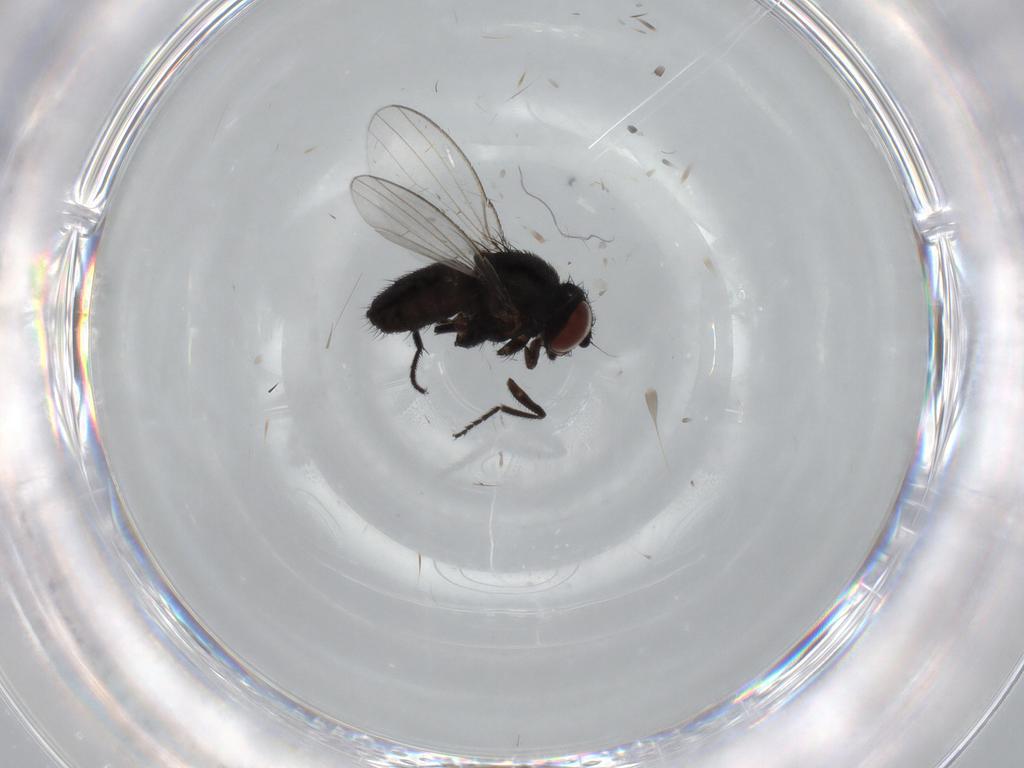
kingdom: Animalia
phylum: Arthropoda
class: Insecta
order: Diptera
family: Milichiidae
